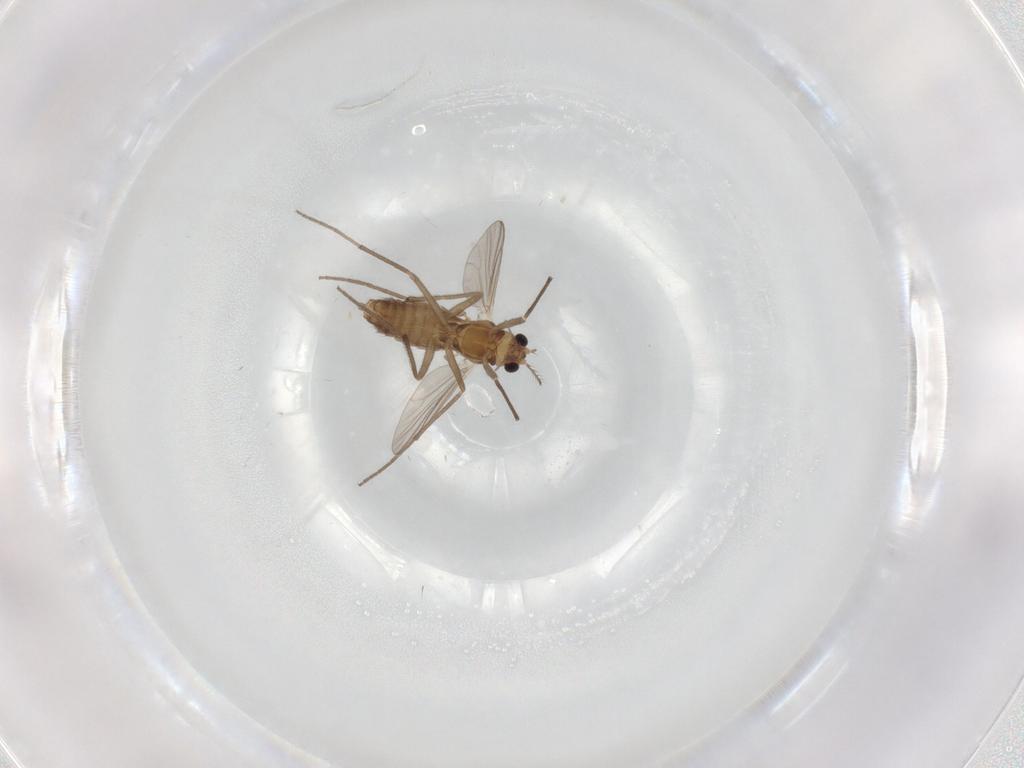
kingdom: Animalia
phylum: Arthropoda
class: Insecta
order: Diptera
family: Chironomidae
